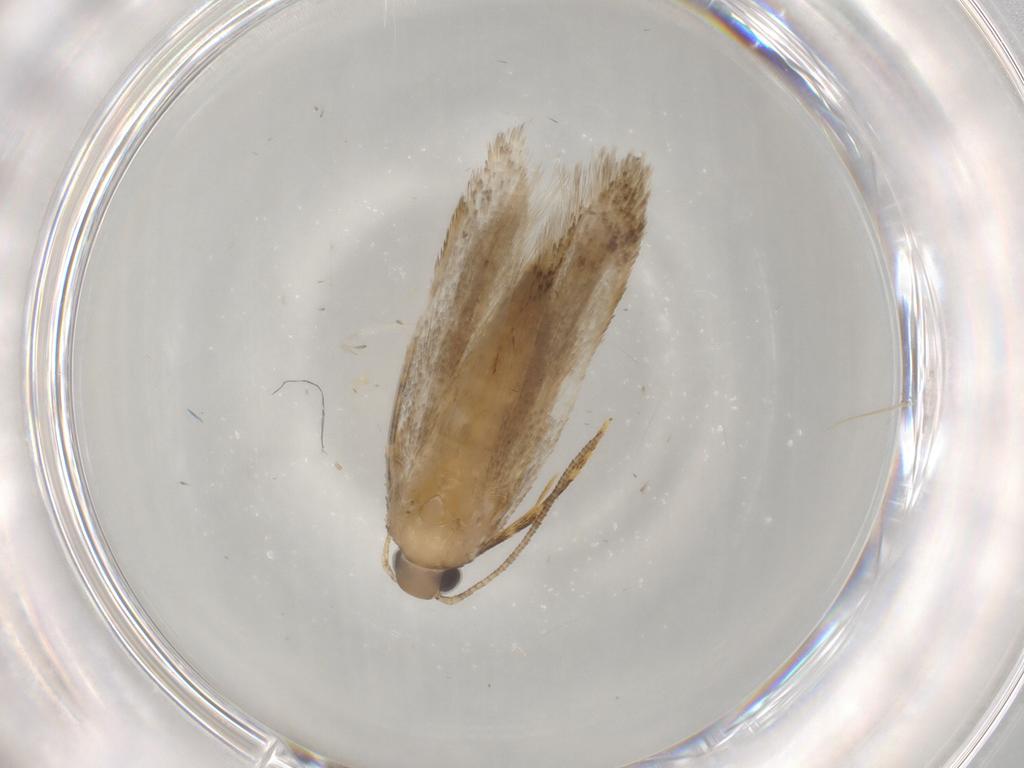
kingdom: Animalia
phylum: Arthropoda
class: Insecta
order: Lepidoptera
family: Autostichidae
